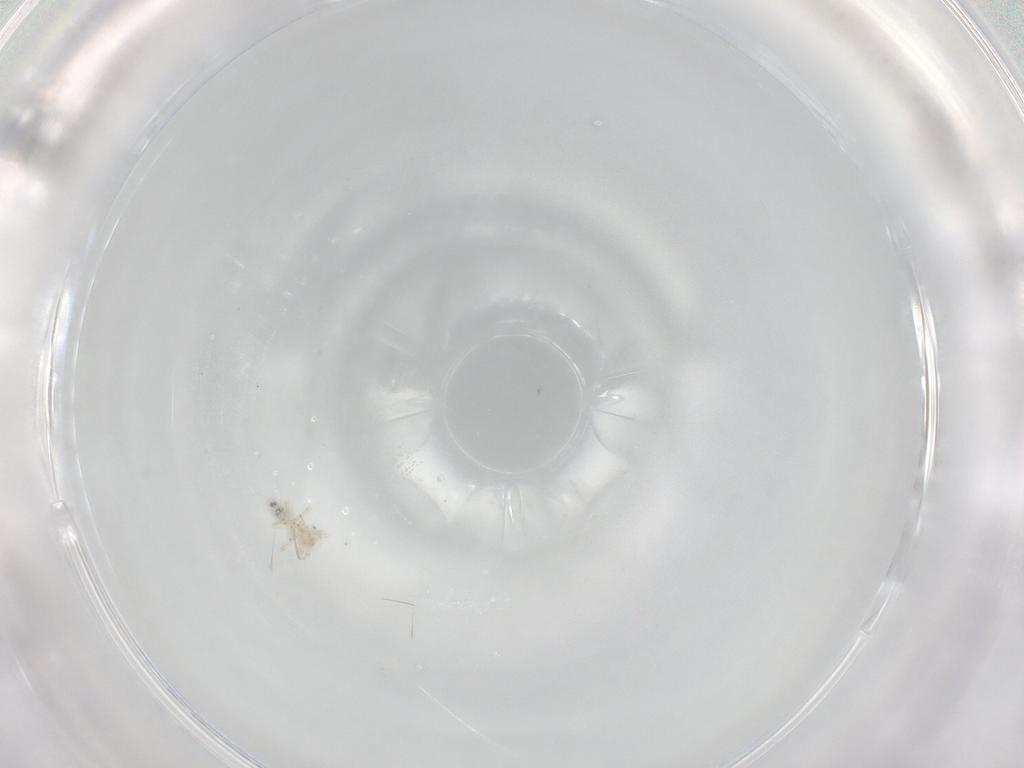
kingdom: Animalia
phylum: Arthropoda
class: Insecta
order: Psocodea
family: Philotarsidae
